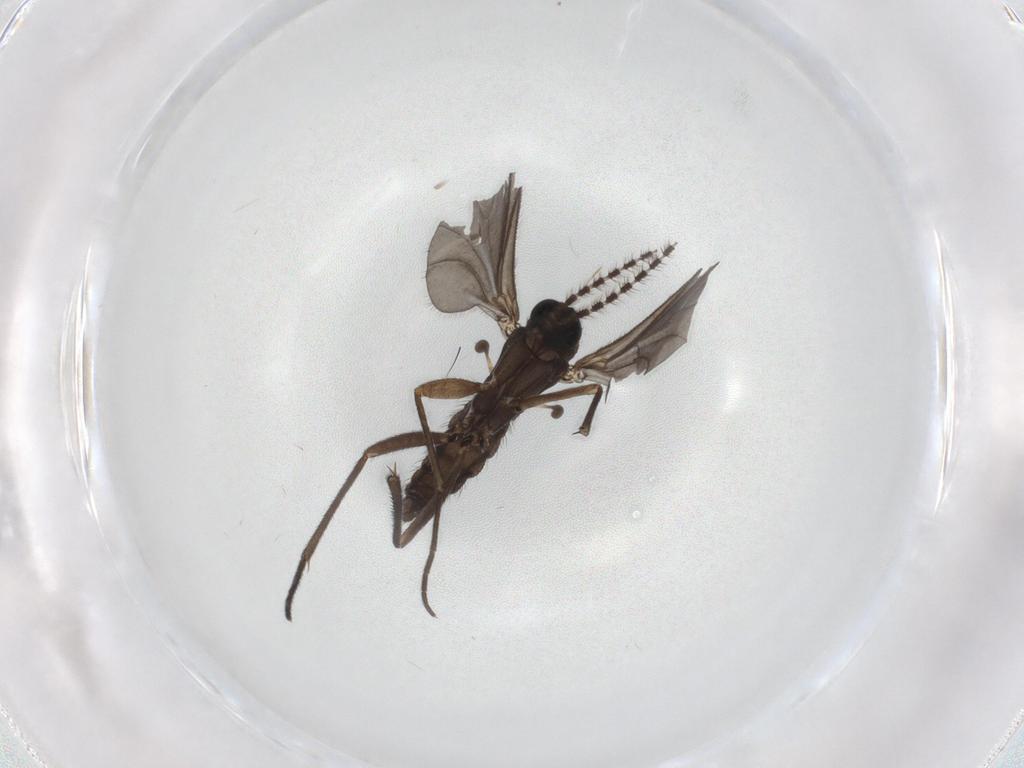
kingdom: Animalia
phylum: Arthropoda
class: Insecta
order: Diptera
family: Sciaridae
